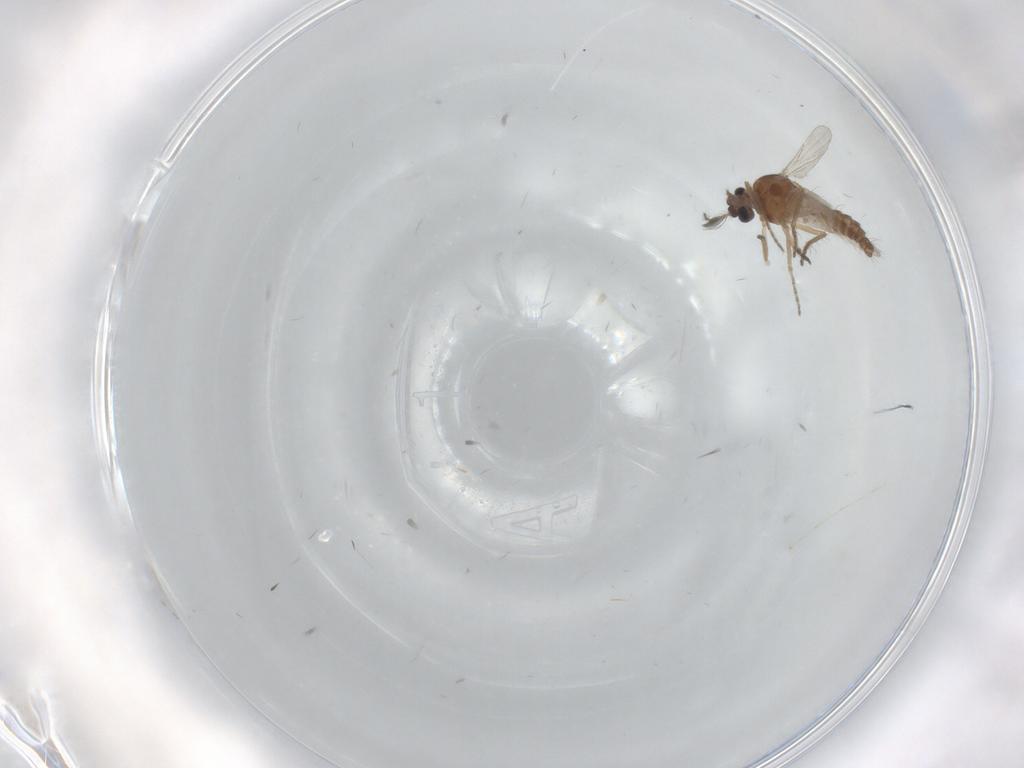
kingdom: Animalia
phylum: Arthropoda
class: Insecta
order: Diptera
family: Ceratopogonidae
